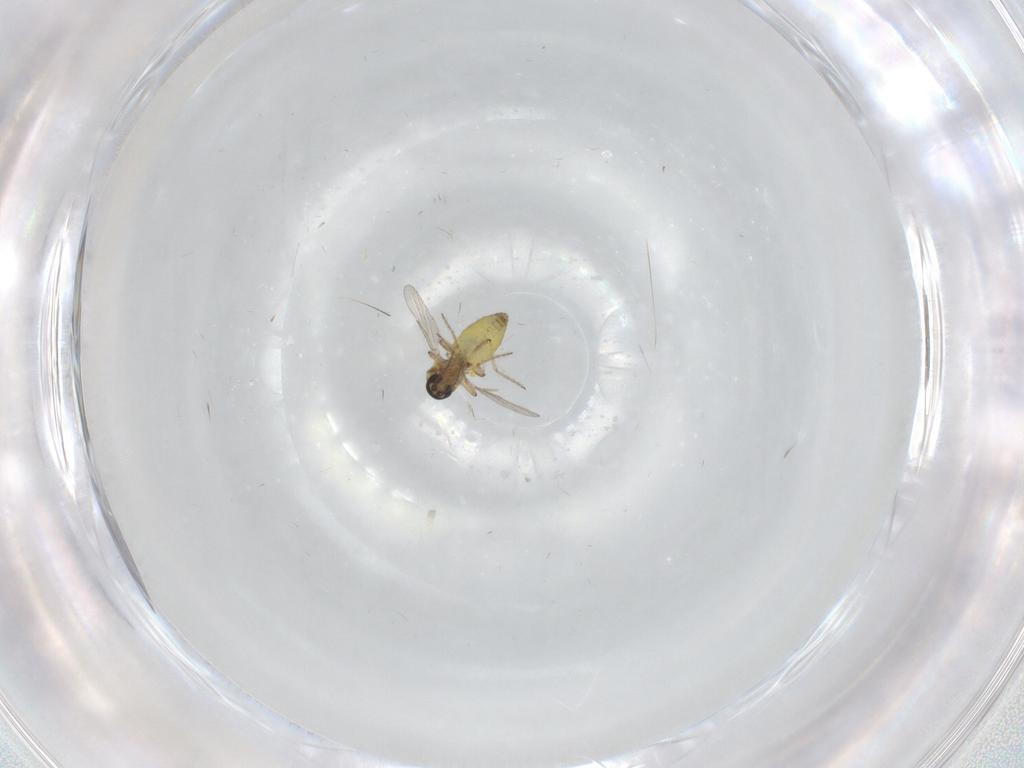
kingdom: Animalia
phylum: Arthropoda
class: Insecta
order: Diptera
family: Ceratopogonidae
